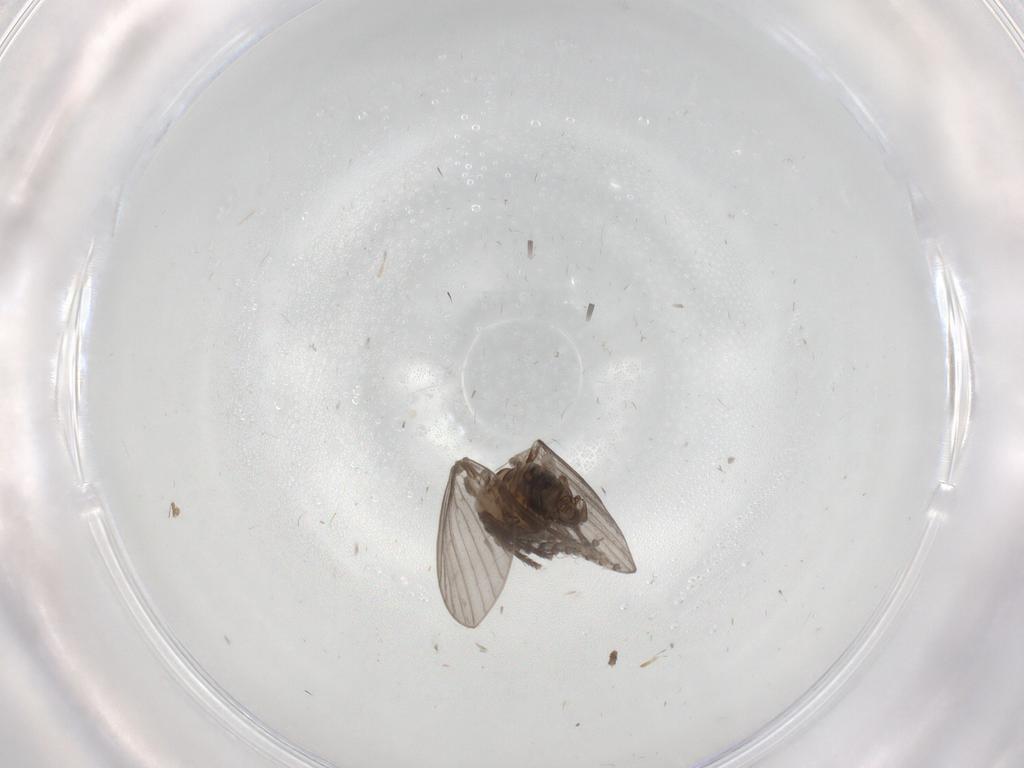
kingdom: Animalia
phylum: Arthropoda
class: Insecta
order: Diptera
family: Psychodidae
